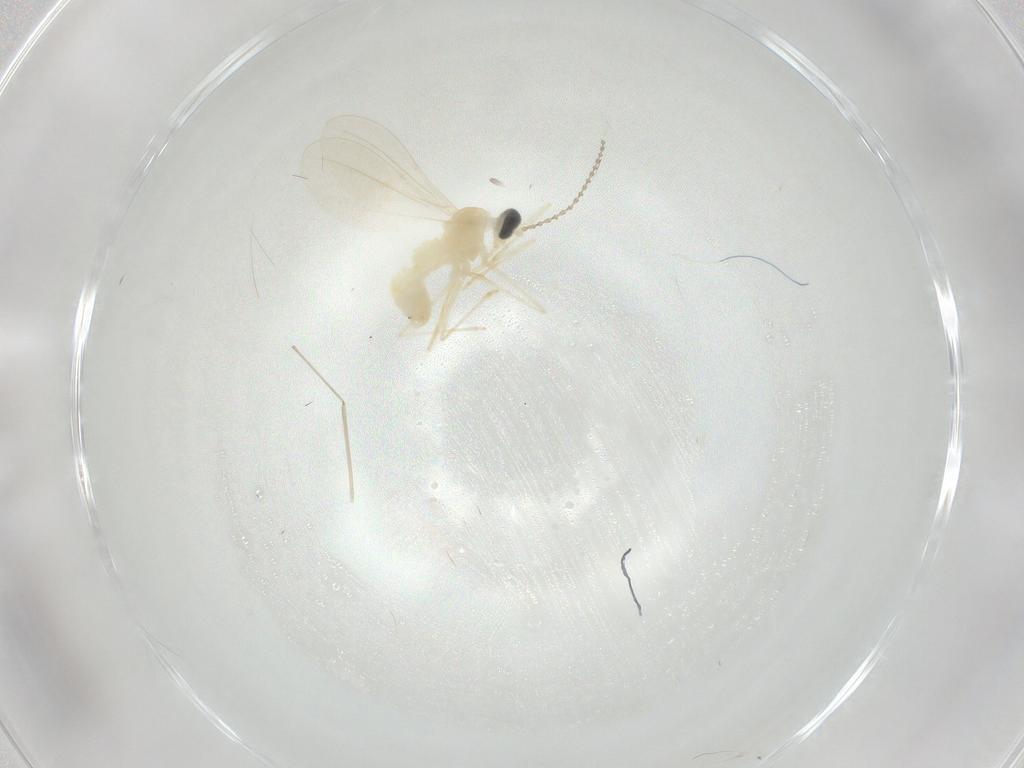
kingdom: Animalia
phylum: Arthropoda
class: Insecta
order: Diptera
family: Cecidomyiidae
